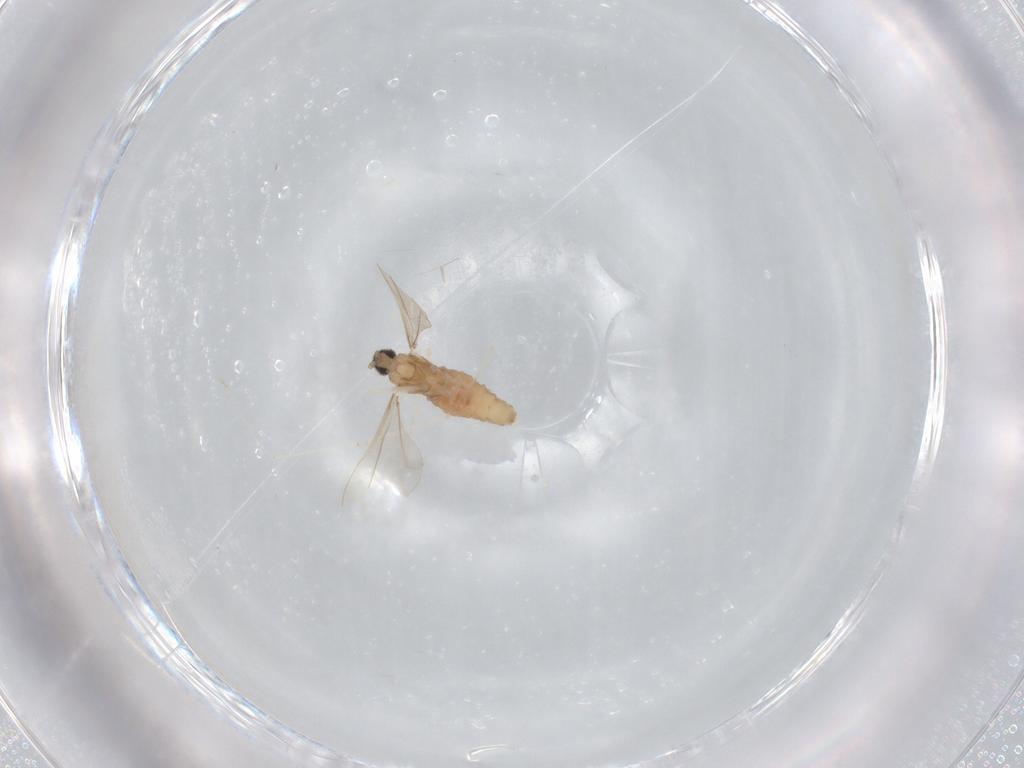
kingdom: Animalia
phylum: Arthropoda
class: Insecta
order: Diptera
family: Cecidomyiidae
